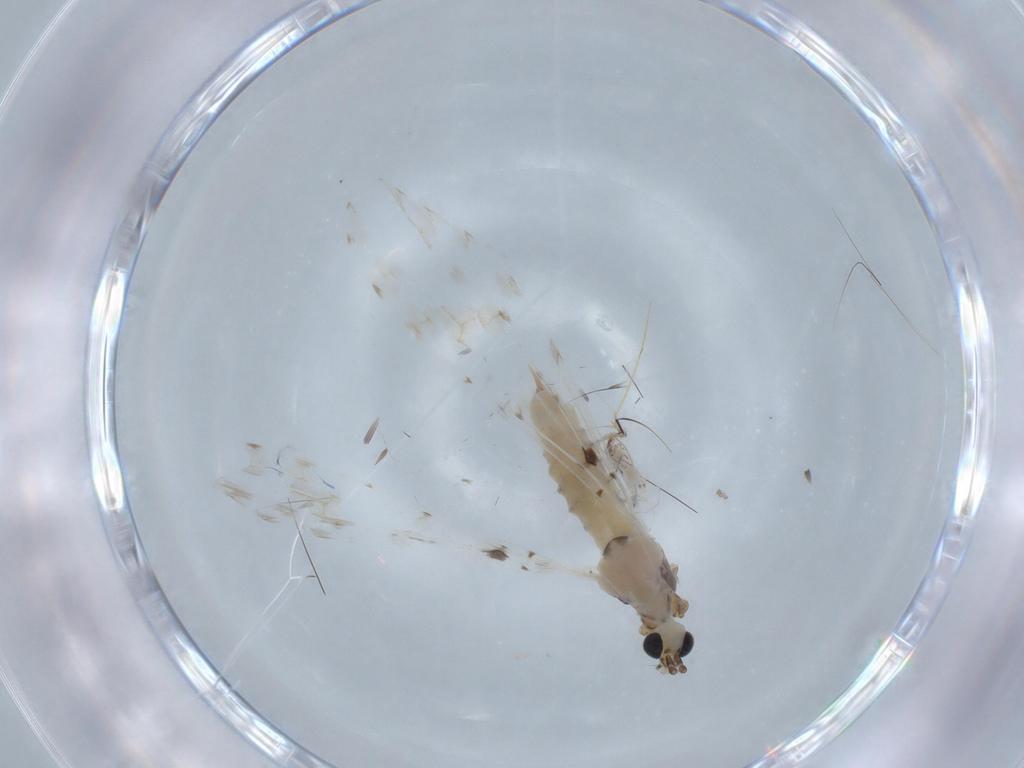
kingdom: Animalia
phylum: Arthropoda
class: Insecta
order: Diptera
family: Limoniidae
